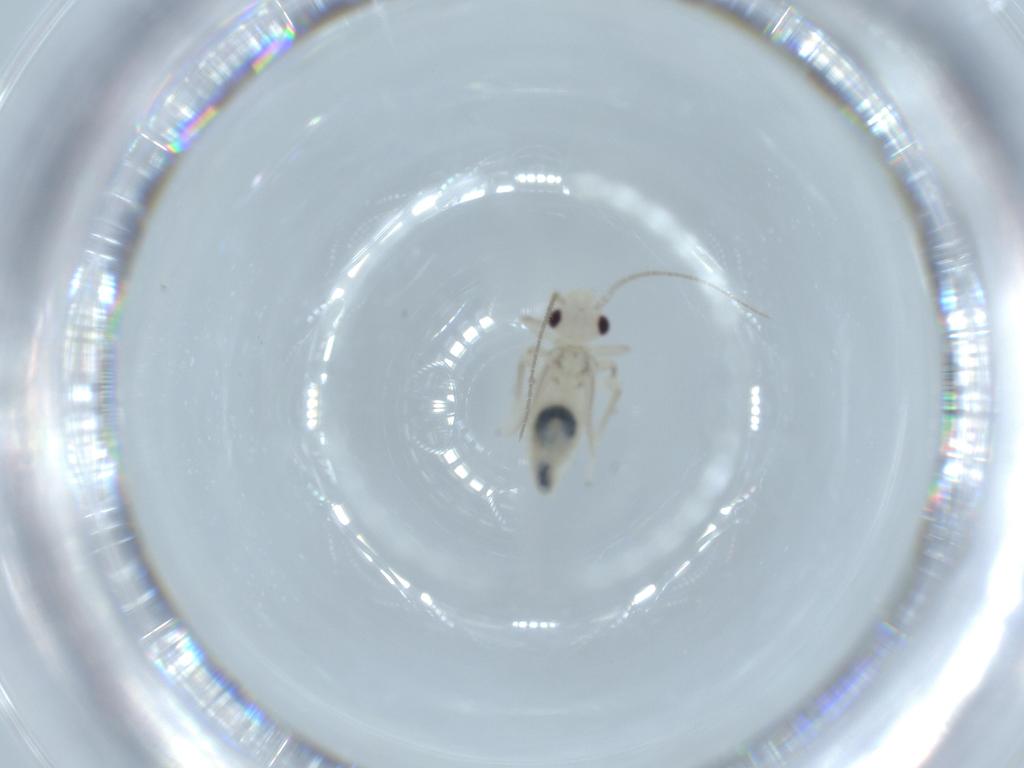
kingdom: Animalia
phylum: Arthropoda
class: Insecta
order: Psocodea
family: Caeciliusidae
